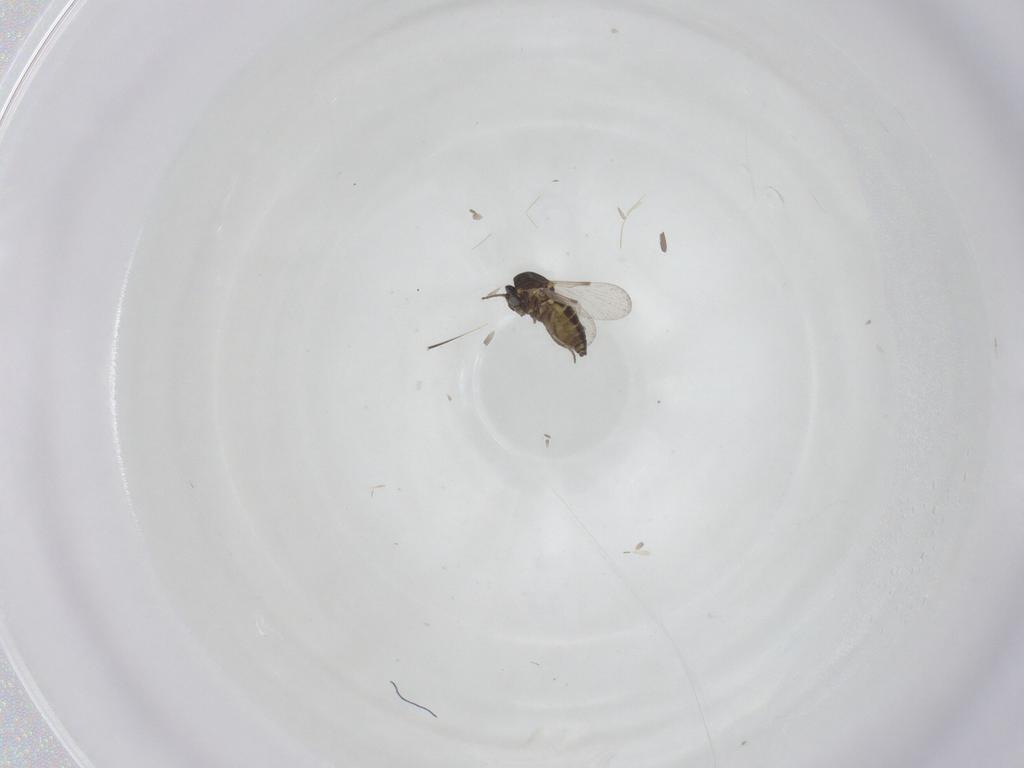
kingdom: Animalia
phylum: Arthropoda
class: Insecta
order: Diptera
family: Ceratopogonidae
